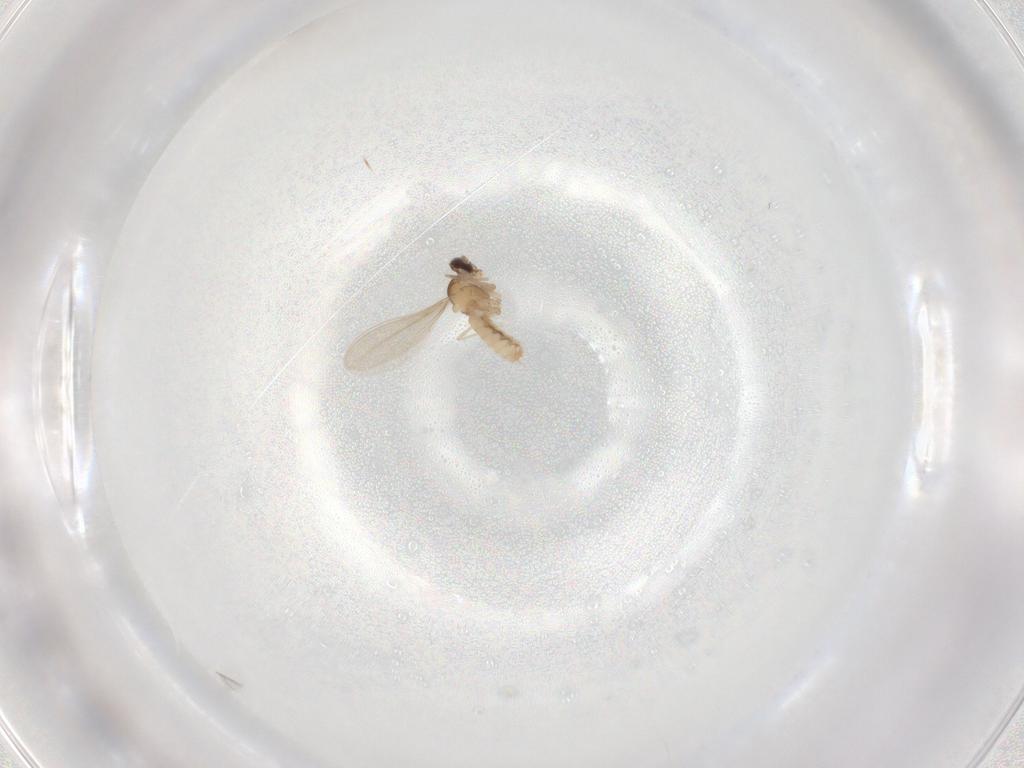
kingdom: Animalia
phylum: Arthropoda
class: Insecta
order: Diptera
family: Cecidomyiidae
